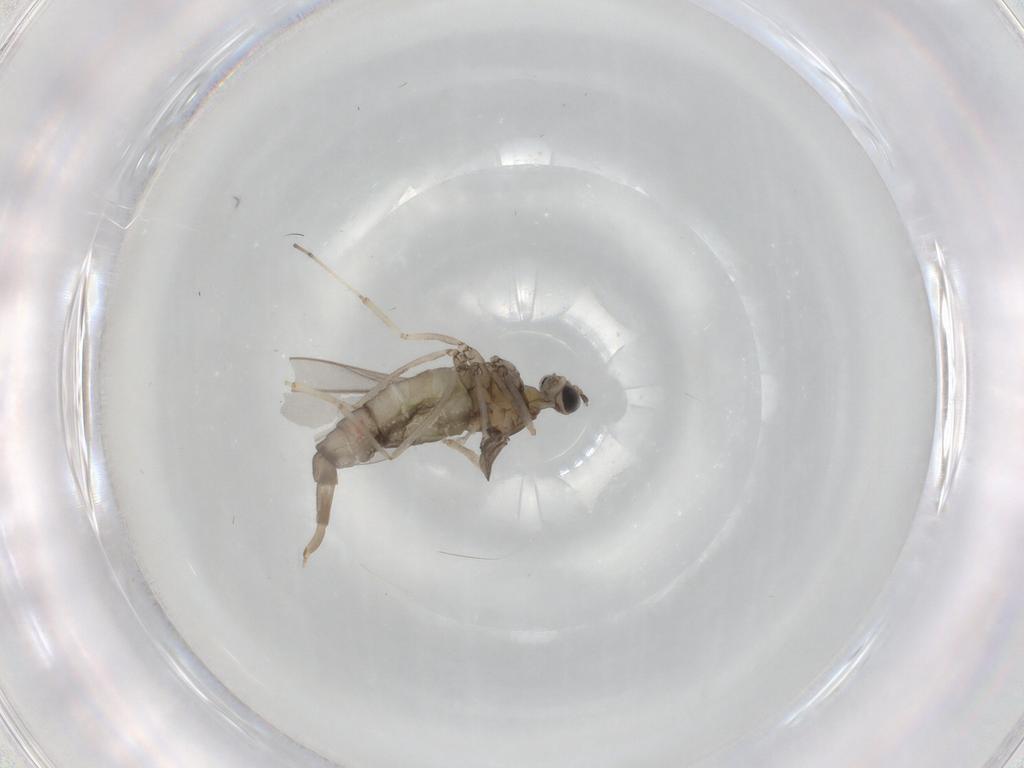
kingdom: Animalia
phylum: Arthropoda
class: Insecta
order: Diptera
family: Cecidomyiidae
